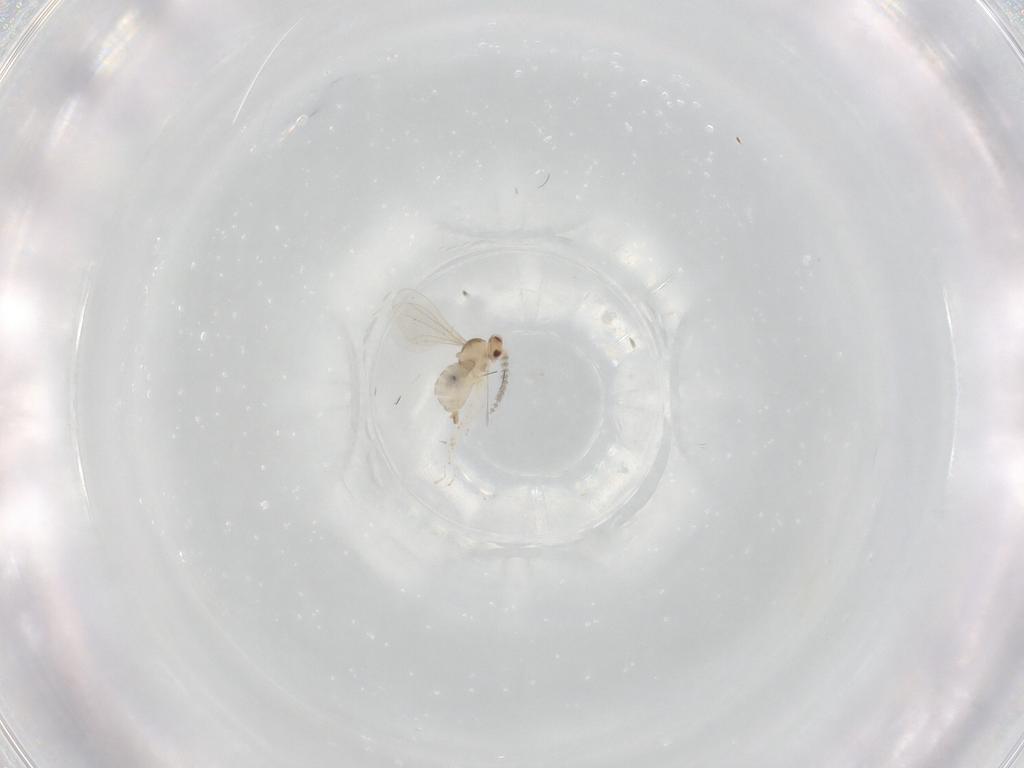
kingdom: Animalia
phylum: Arthropoda
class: Insecta
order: Diptera
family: Cecidomyiidae
